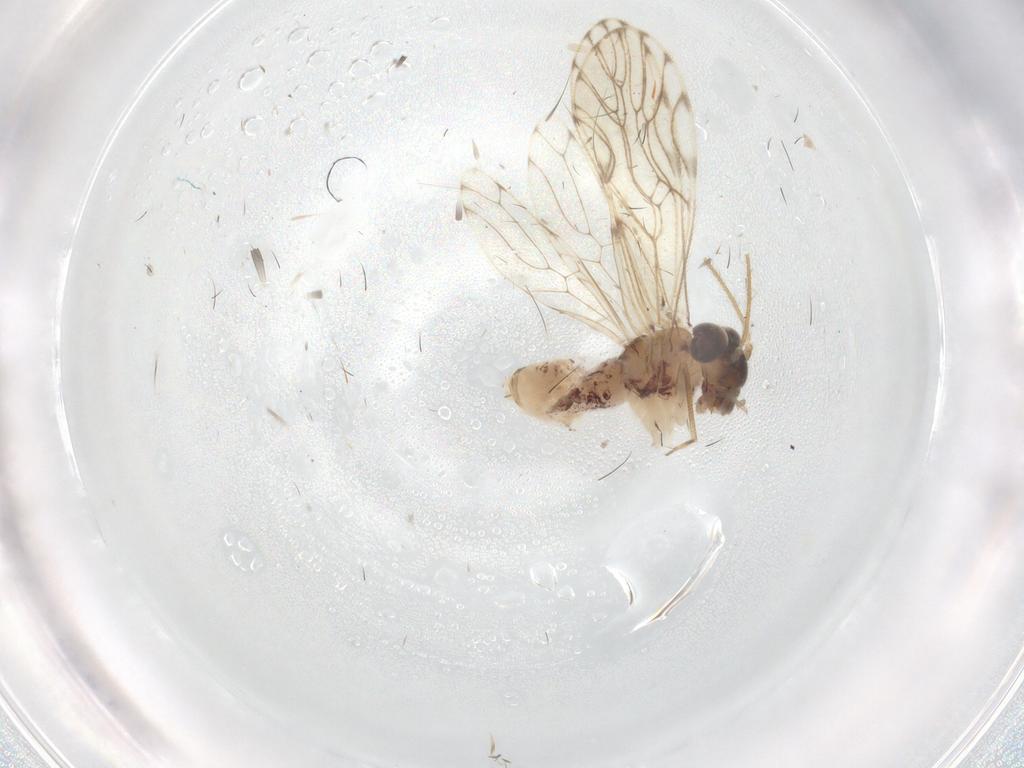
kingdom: Animalia
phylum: Arthropoda
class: Insecta
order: Psocodea
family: Epipsocidae
